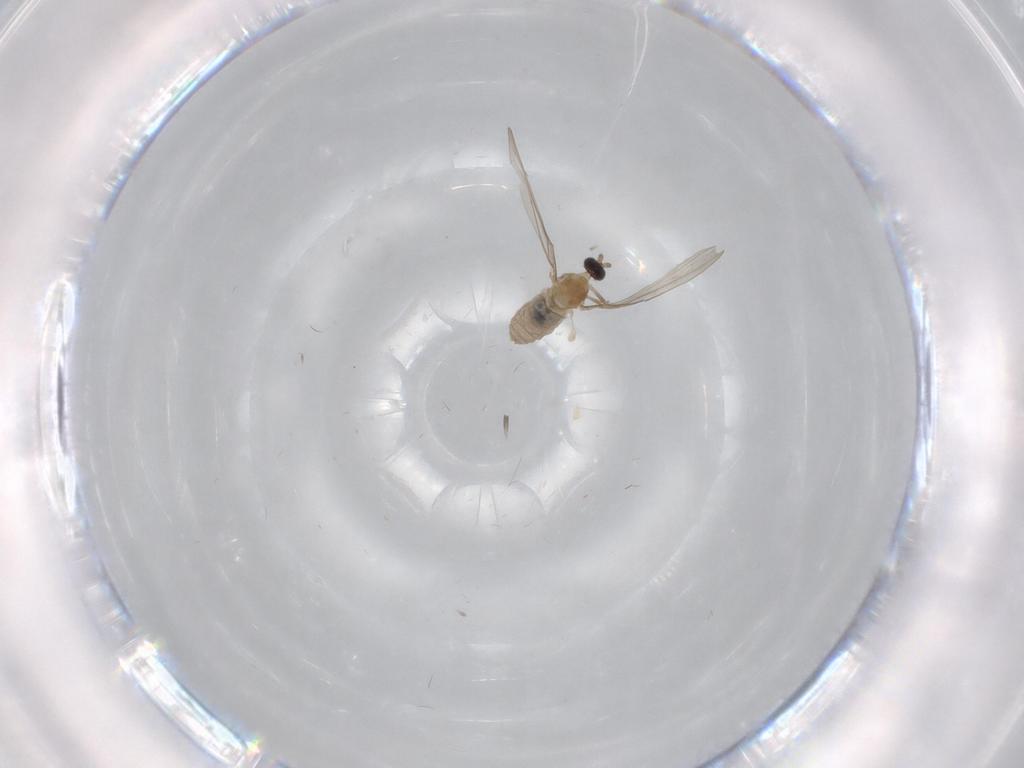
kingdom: Animalia
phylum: Arthropoda
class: Insecta
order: Diptera
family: Cecidomyiidae
